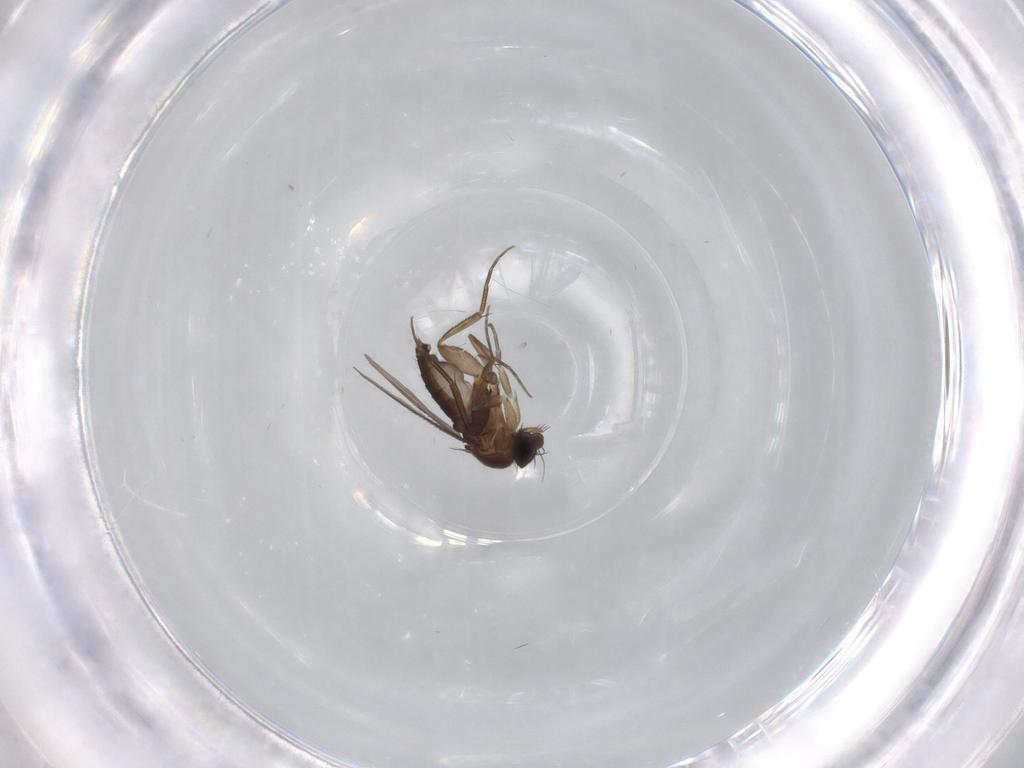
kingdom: Animalia
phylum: Arthropoda
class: Insecta
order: Diptera
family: Phoridae
